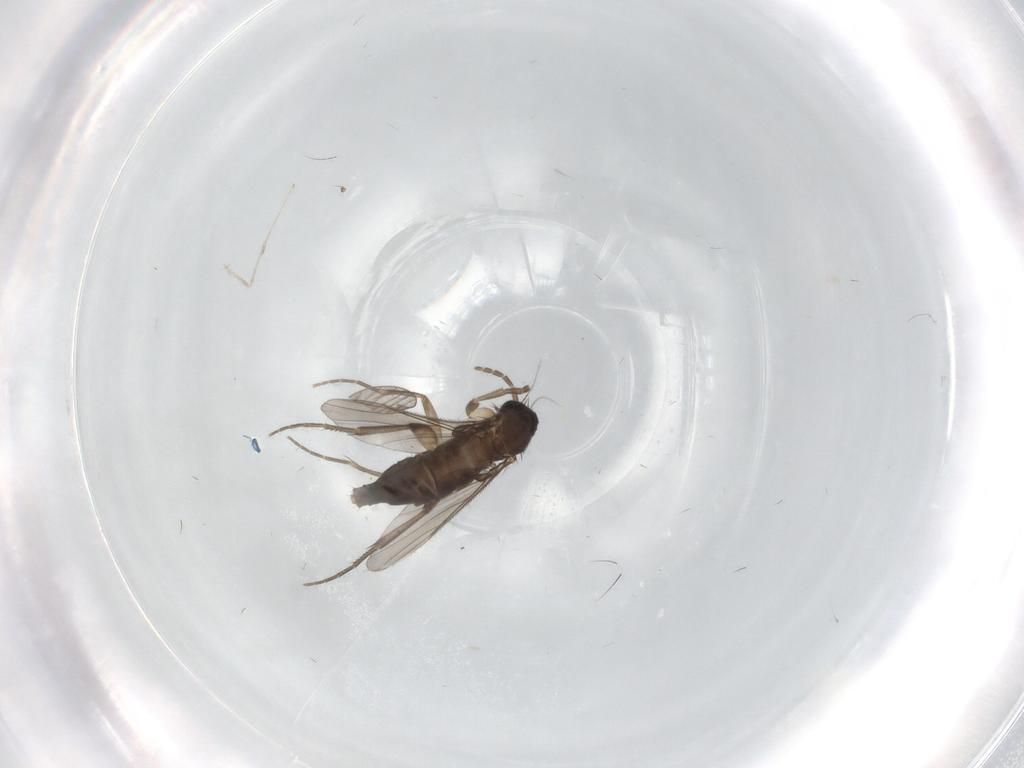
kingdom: Animalia
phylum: Arthropoda
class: Insecta
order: Diptera
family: Phoridae
